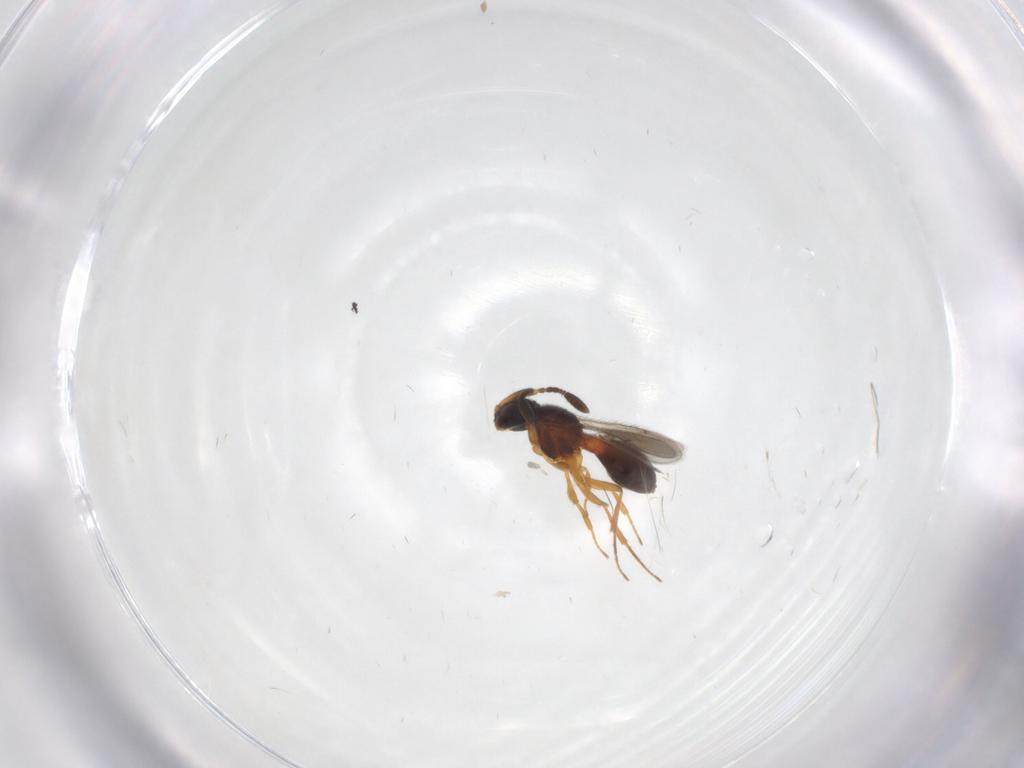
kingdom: Animalia
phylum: Arthropoda
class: Insecta
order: Hymenoptera
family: Scelionidae
